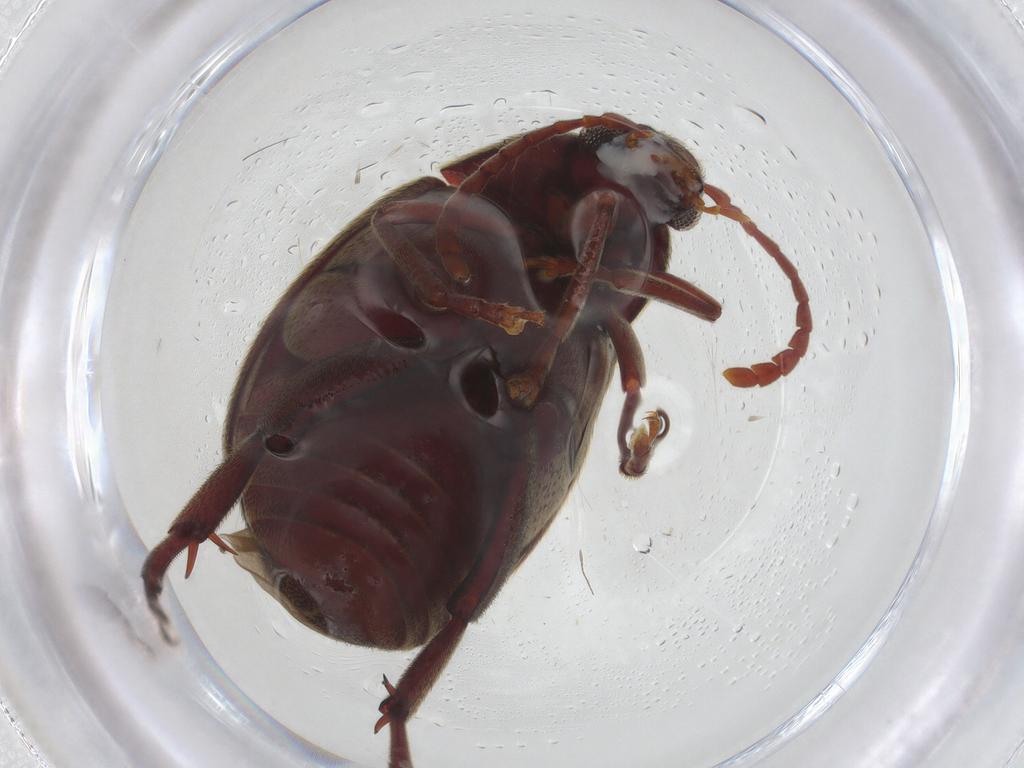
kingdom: Animalia
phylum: Arthropoda
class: Insecta
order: Coleoptera
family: Chrysomelidae
